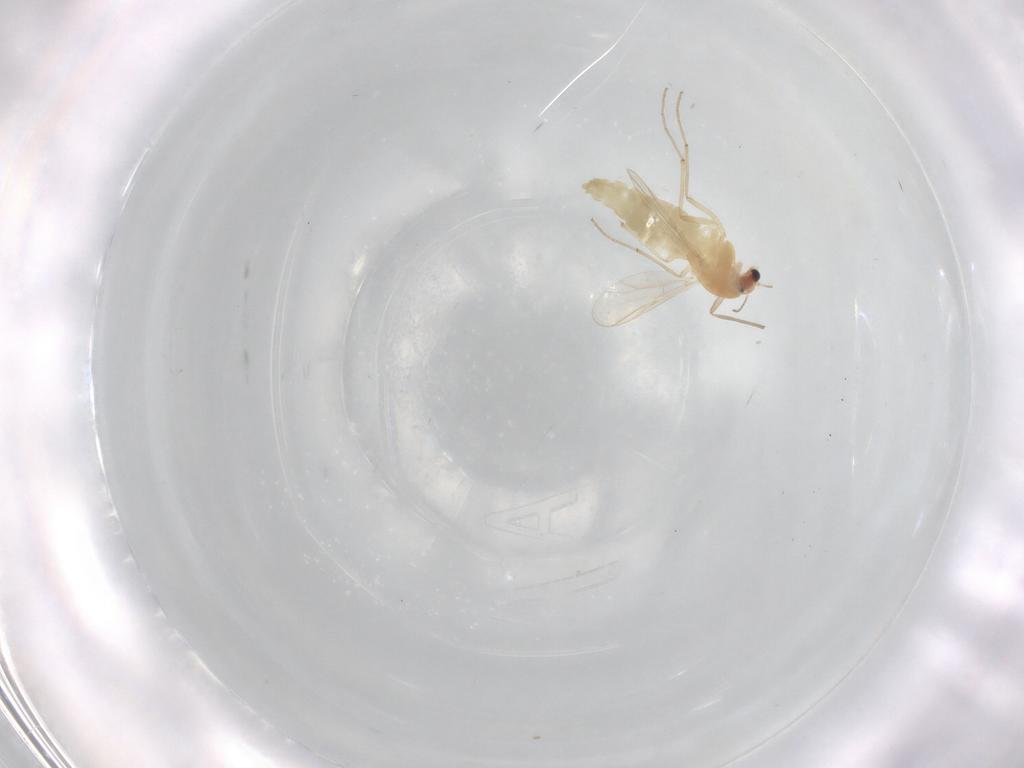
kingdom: Animalia
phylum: Arthropoda
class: Insecta
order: Diptera
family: Chironomidae
